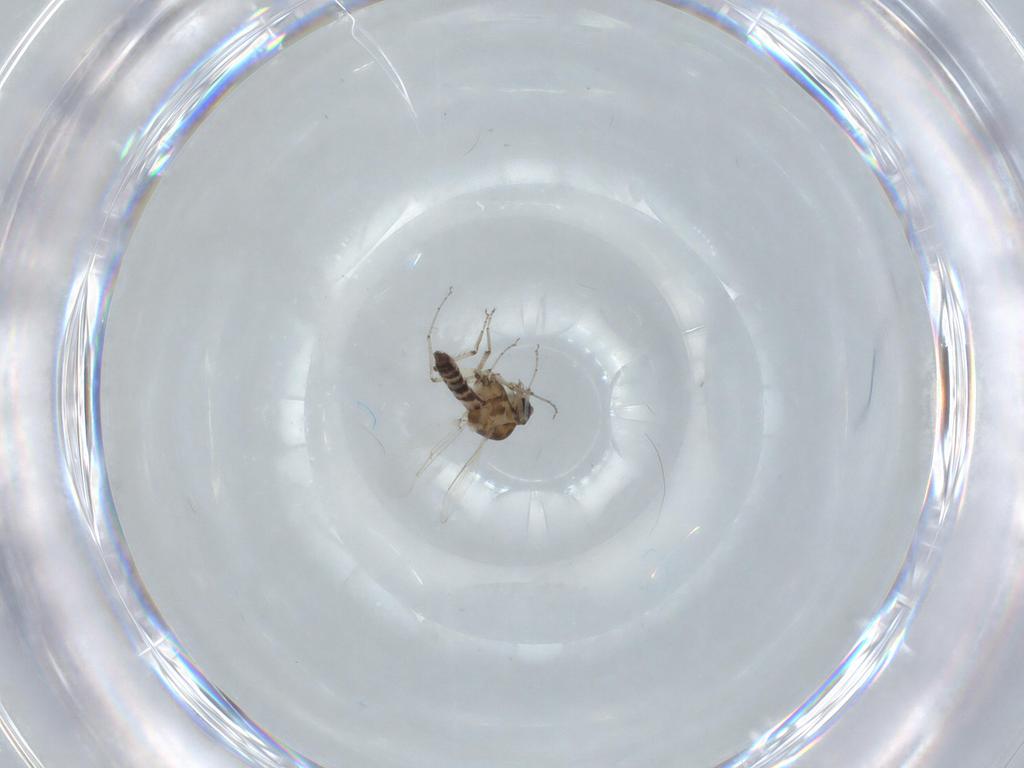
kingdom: Animalia
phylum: Arthropoda
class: Insecta
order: Diptera
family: Ceratopogonidae
